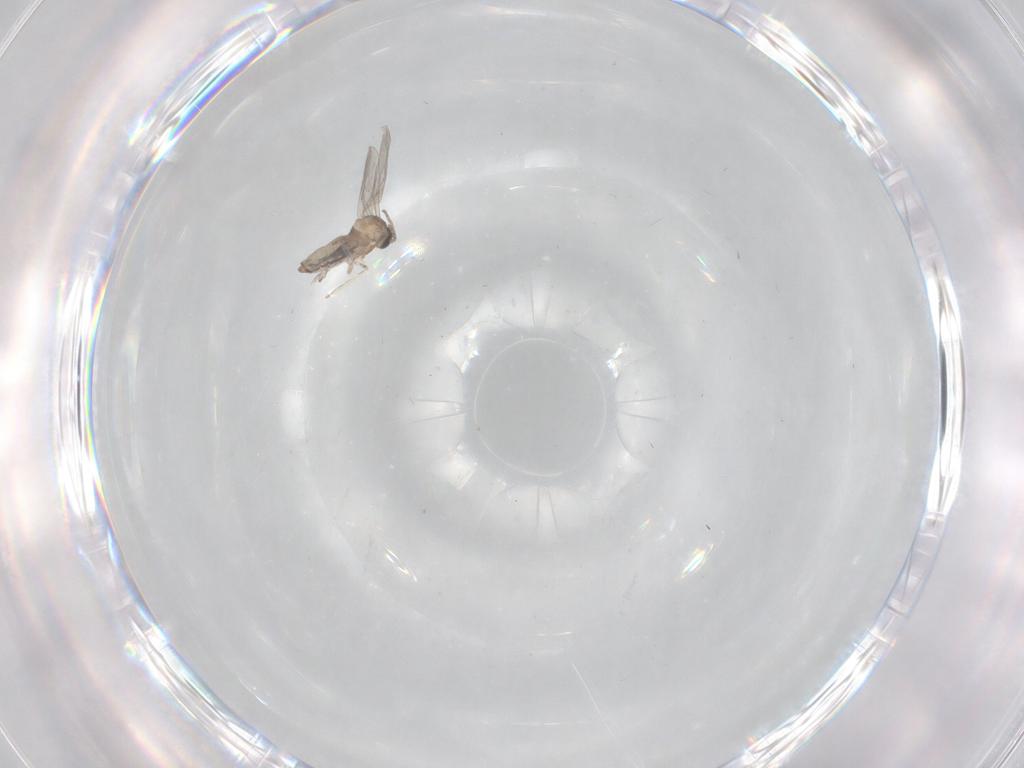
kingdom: Animalia
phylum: Arthropoda
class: Insecta
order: Diptera
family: Cecidomyiidae
